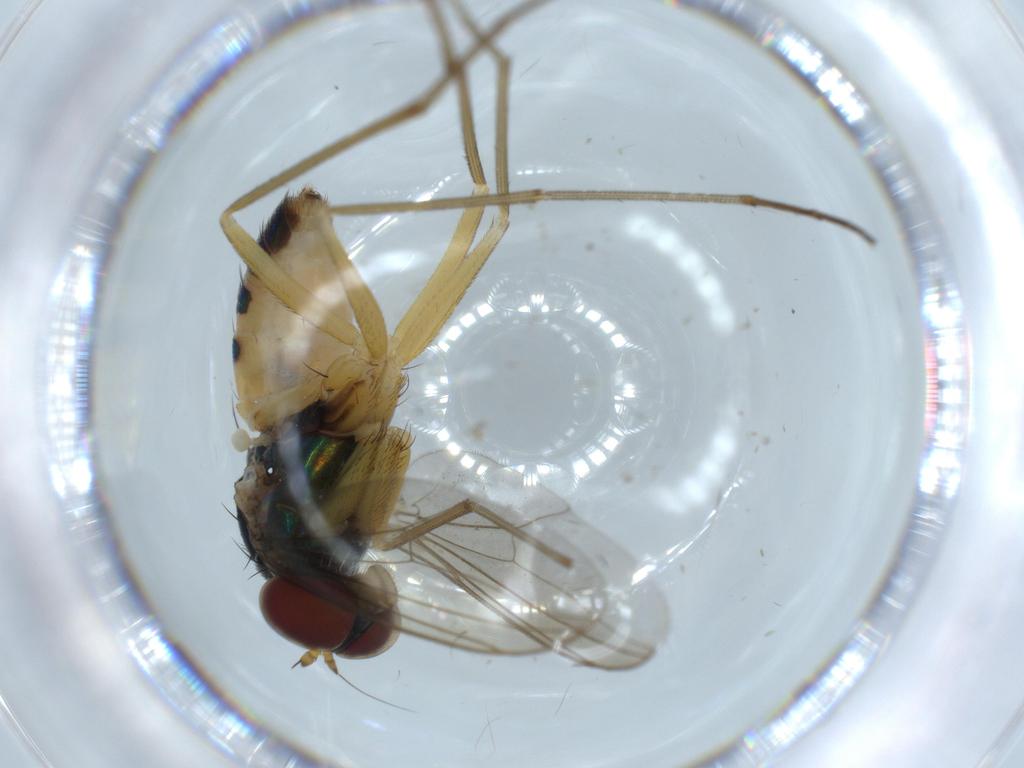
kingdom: Animalia
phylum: Arthropoda
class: Insecta
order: Diptera
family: Dolichopodidae
